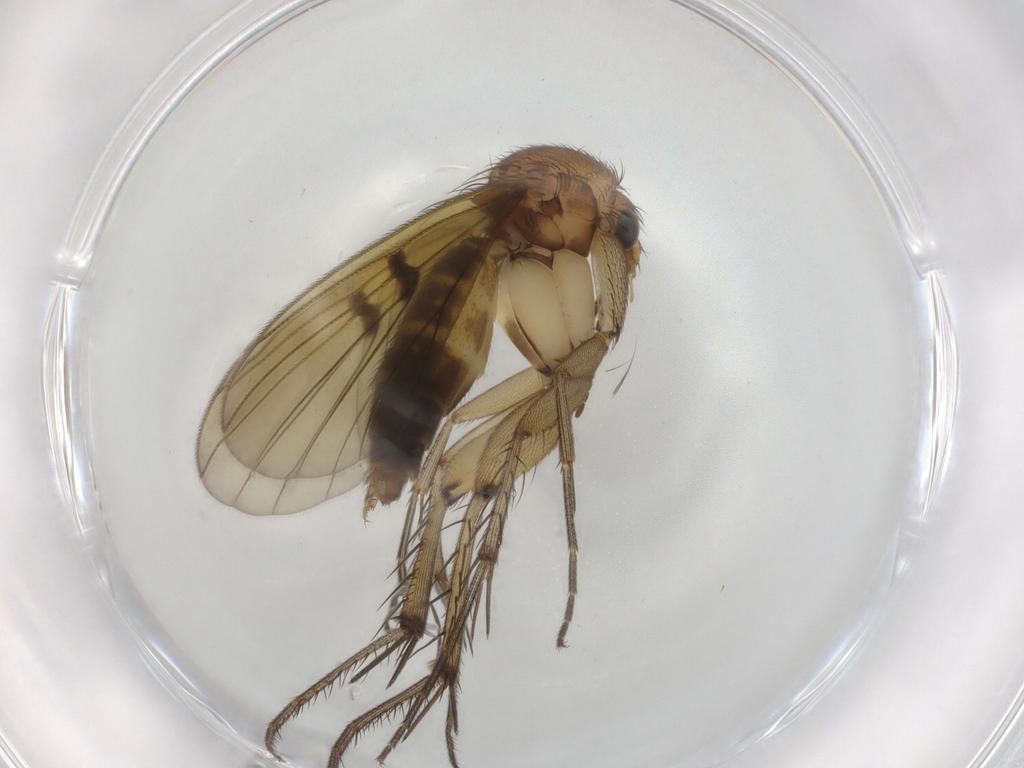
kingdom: Animalia
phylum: Arthropoda
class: Insecta
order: Diptera
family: Mycetophilidae
